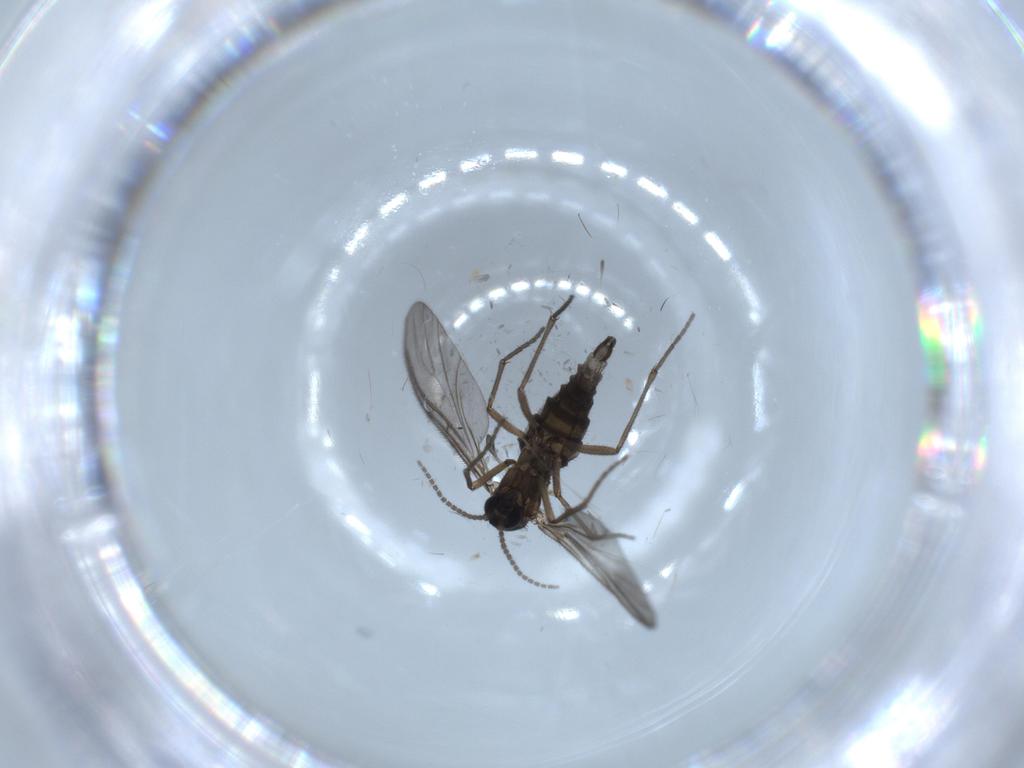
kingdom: Animalia
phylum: Arthropoda
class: Insecta
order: Diptera
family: Sciaridae
